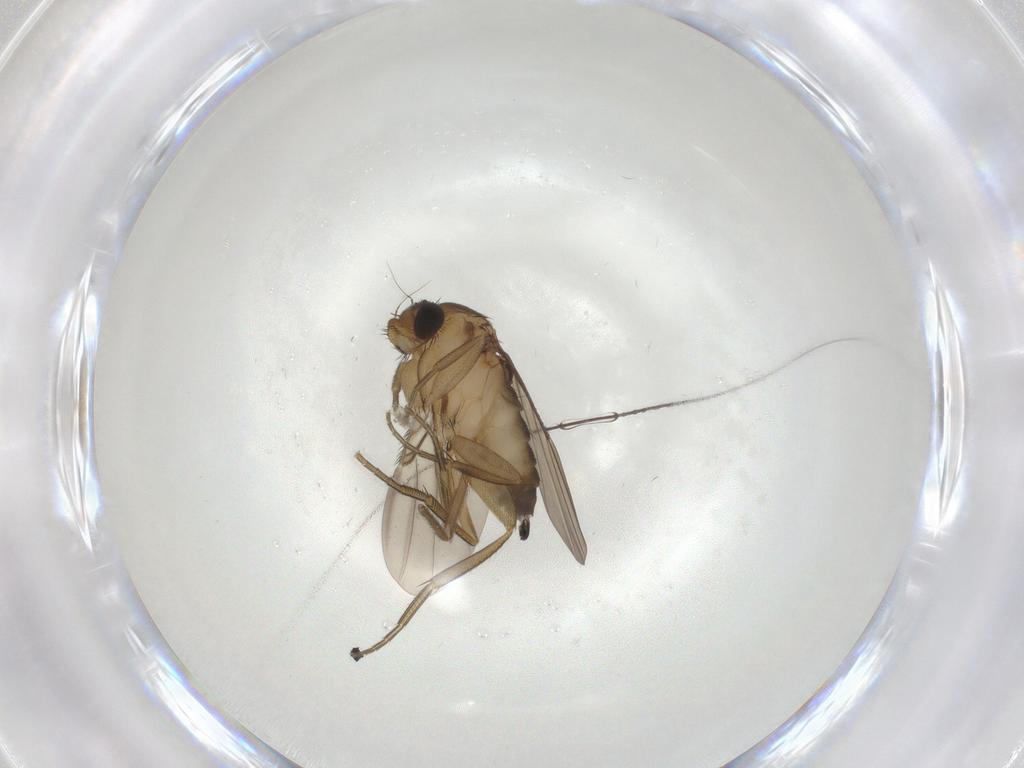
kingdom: Animalia
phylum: Arthropoda
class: Insecta
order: Diptera
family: Phoridae
